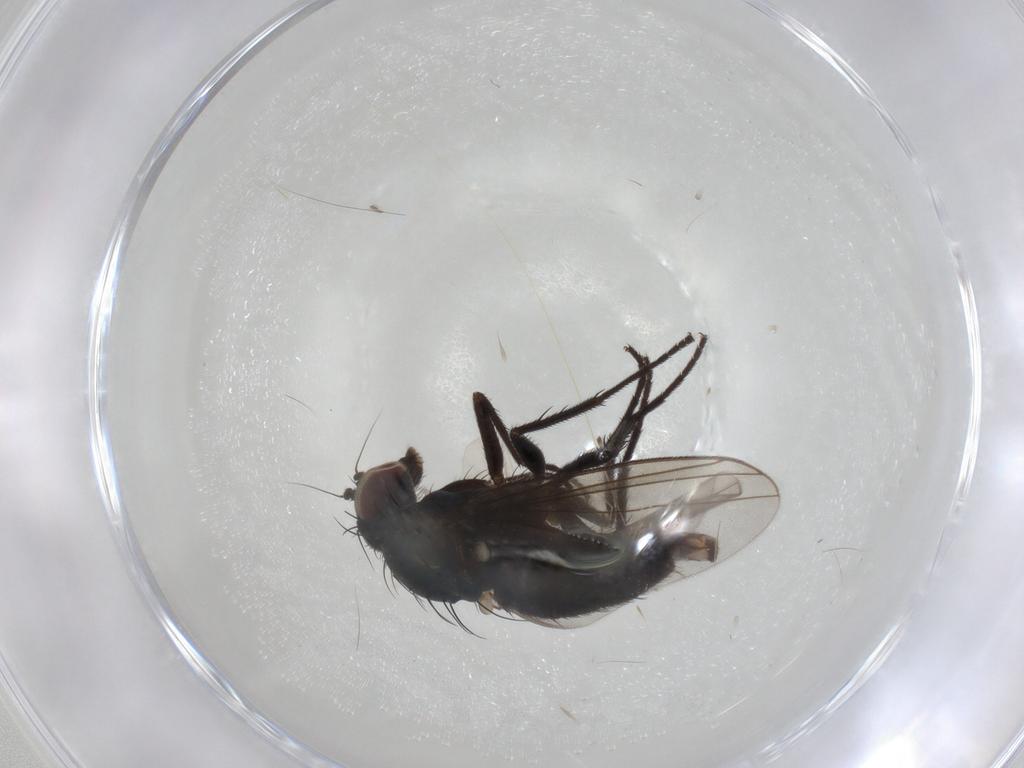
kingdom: Animalia
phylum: Arthropoda
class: Insecta
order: Diptera
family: Dolichopodidae
